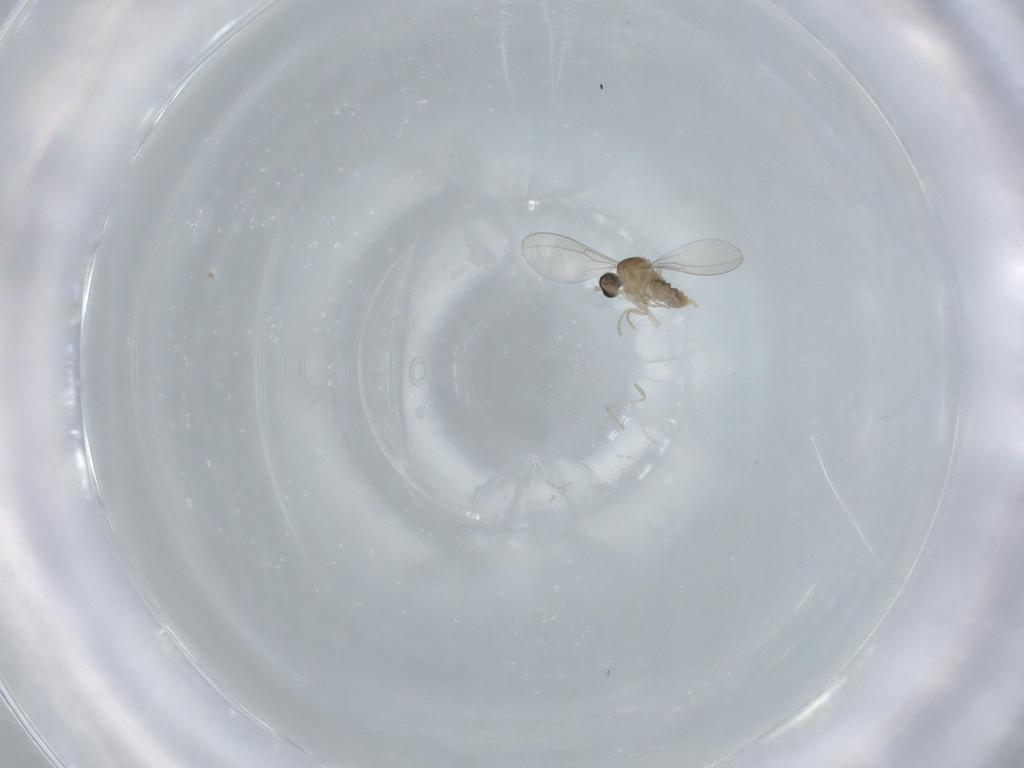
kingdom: Animalia
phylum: Arthropoda
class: Insecta
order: Diptera
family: Cecidomyiidae
